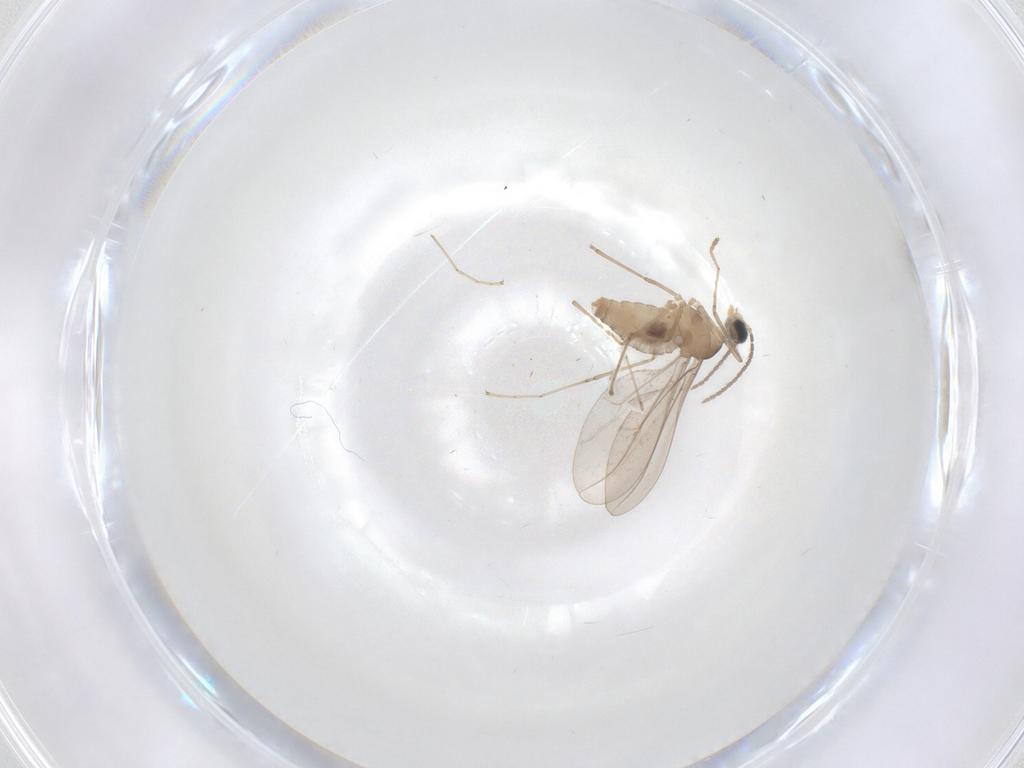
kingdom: Animalia
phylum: Arthropoda
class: Insecta
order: Diptera
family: Cecidomyiidae
